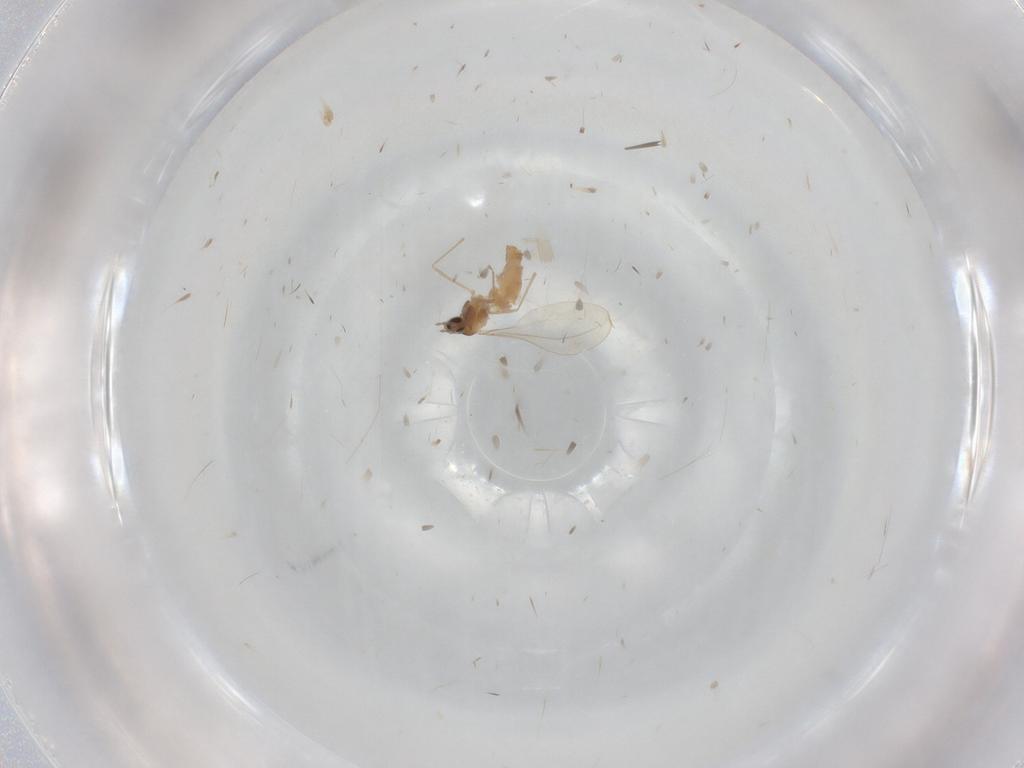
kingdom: Animalia
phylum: Arthropoda
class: Insecta
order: Diptera
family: Cecidomyiidae
